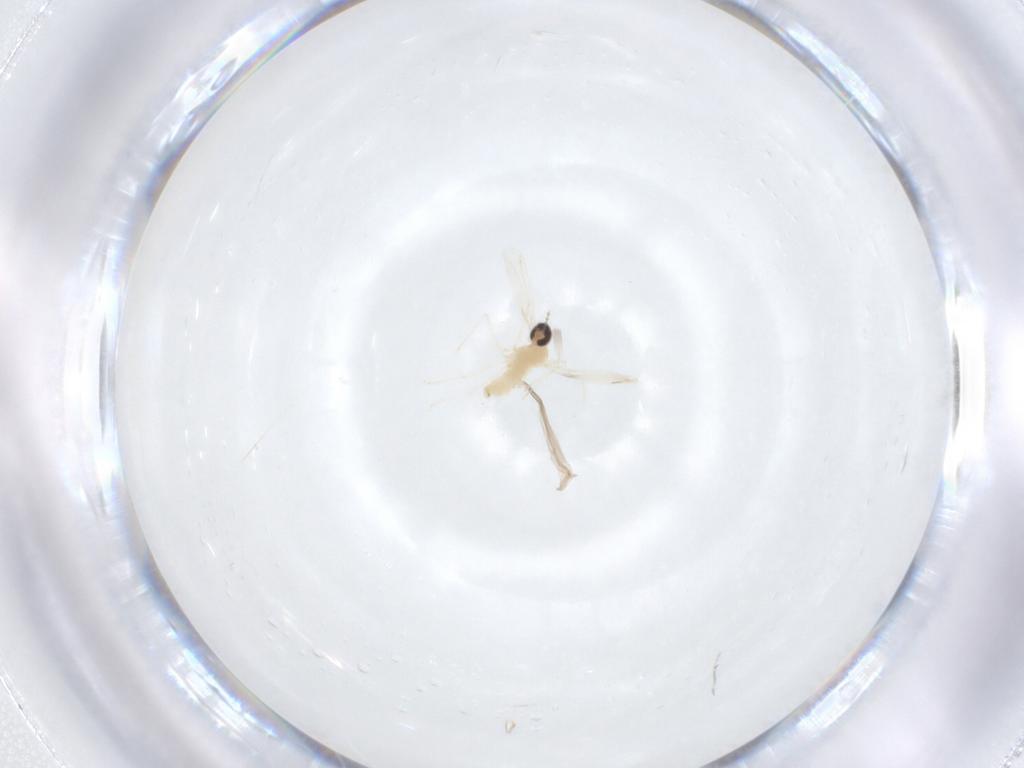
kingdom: Animalia
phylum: Arthropoda
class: Insecta
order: Diptera
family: Cecidomyiidae
